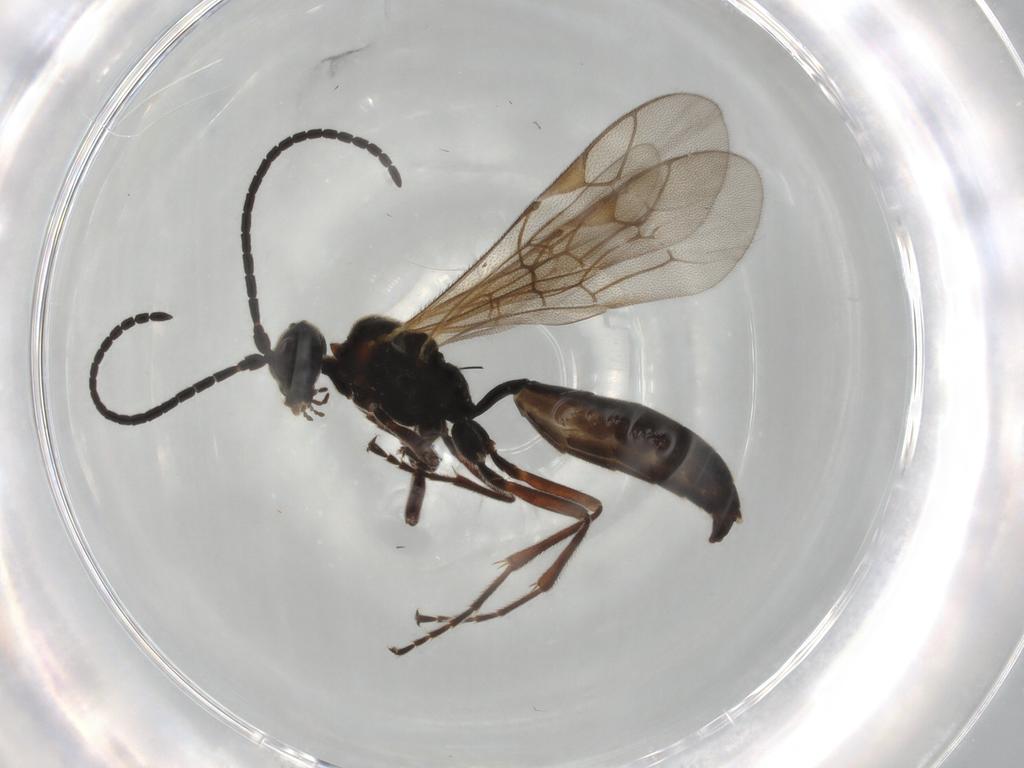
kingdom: Animalia
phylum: Arthropoda
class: Insecta
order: Hymenoptera
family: Ichneumonidae
